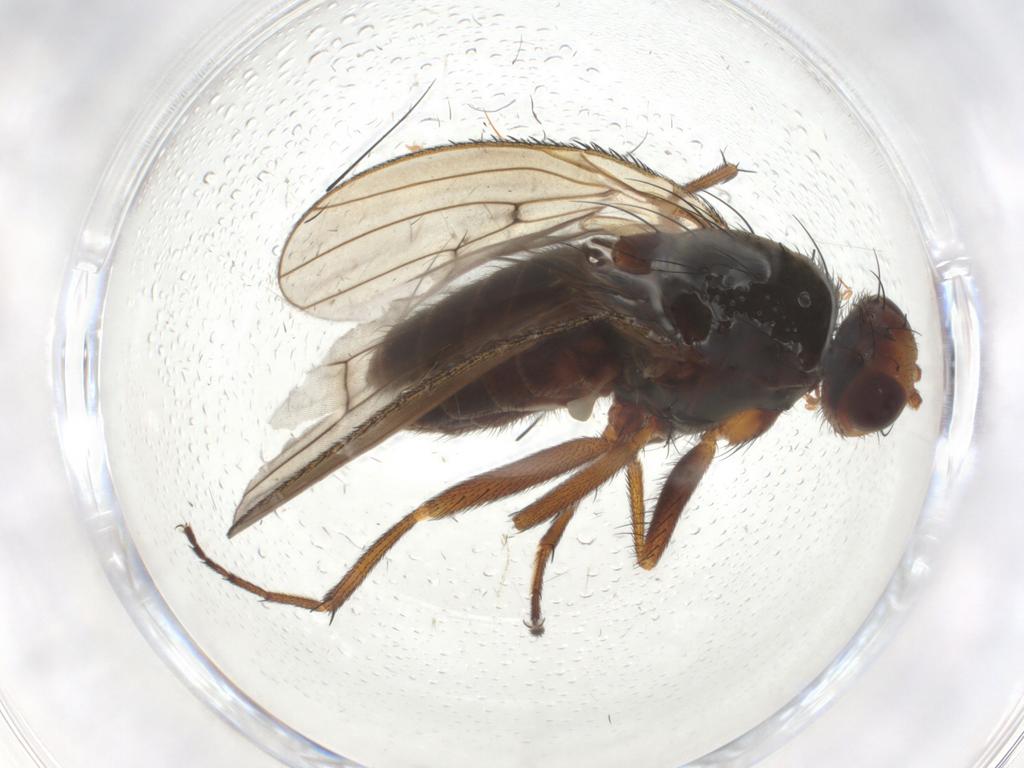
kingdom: Animalia
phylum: Arthropoda
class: Insecta
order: Diptera
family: Heleomyzidae
